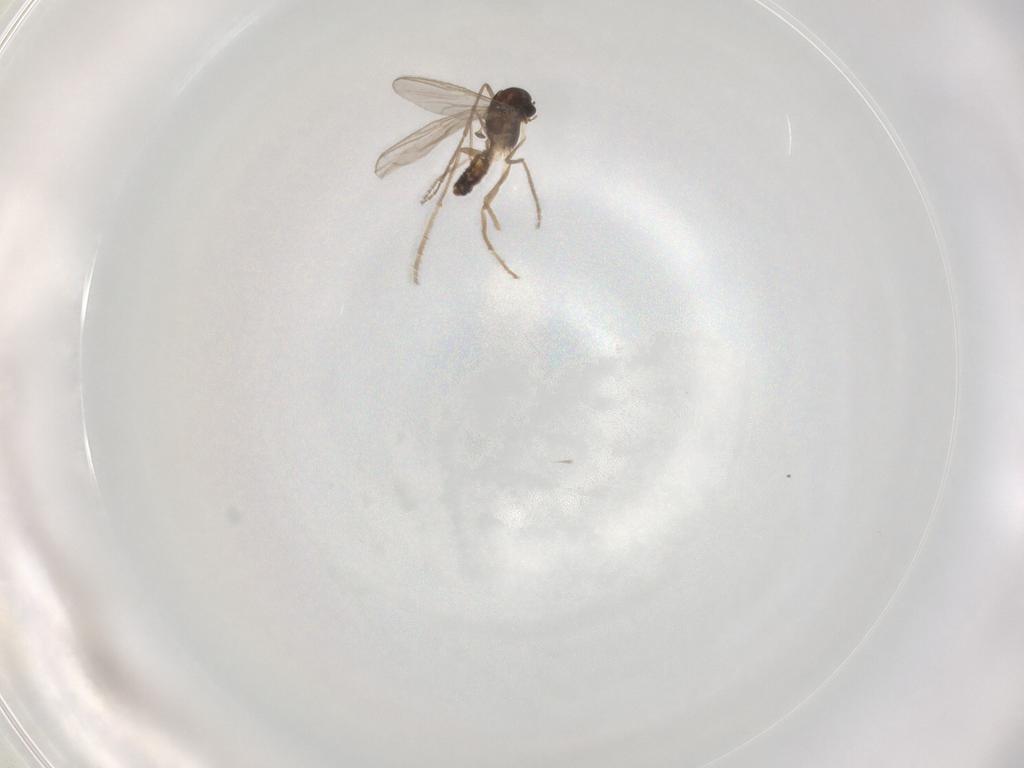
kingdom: Animalia
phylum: Arthropoda
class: Insecta
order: Diptera
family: Chironomidae
